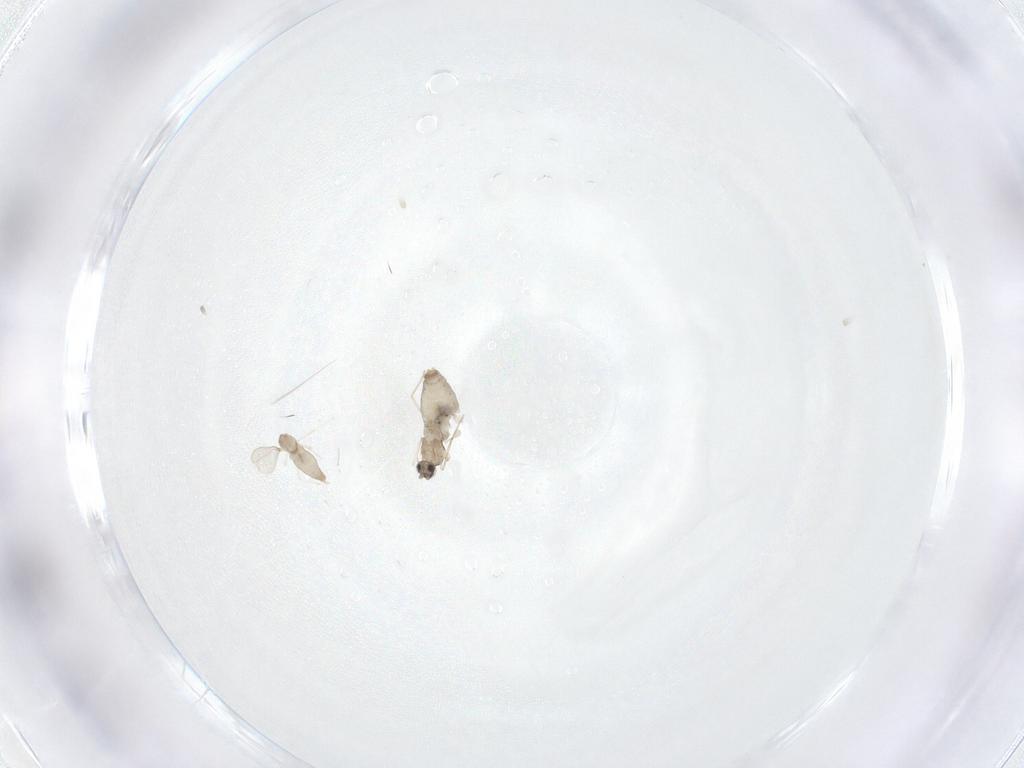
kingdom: Animalia
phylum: Arthropoda
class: Insecta
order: Diptera
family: Cecidomyiidae
